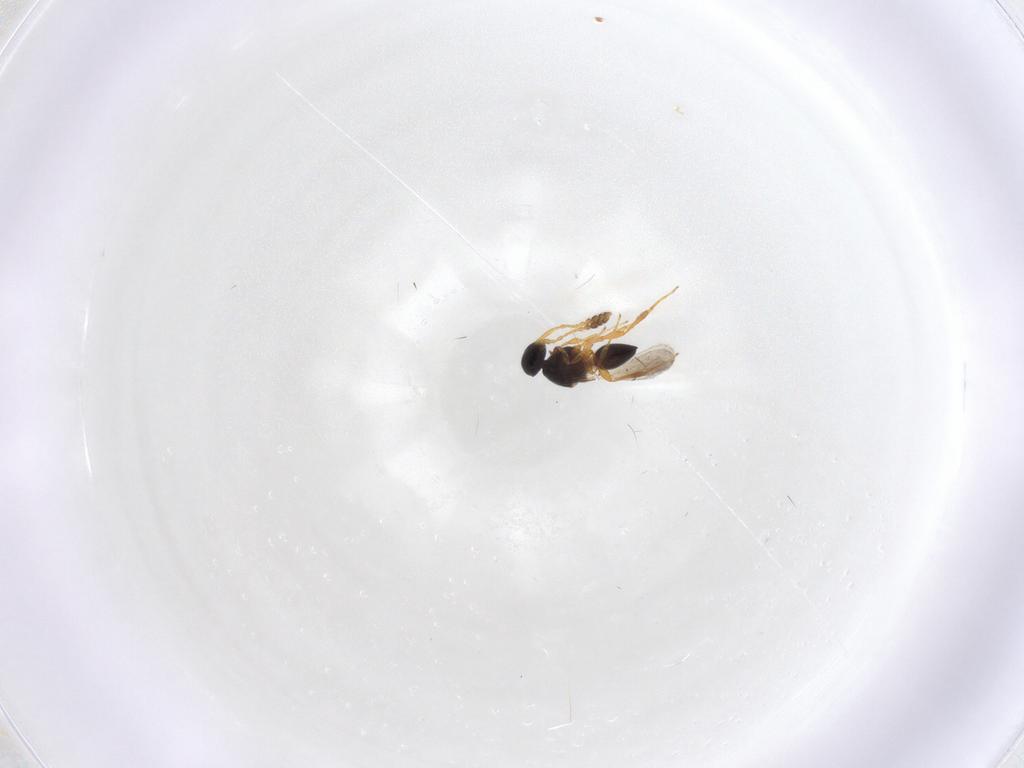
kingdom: Animalia
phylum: Arthropoda
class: Insecta
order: Hymenoptera
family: Platygastridae
